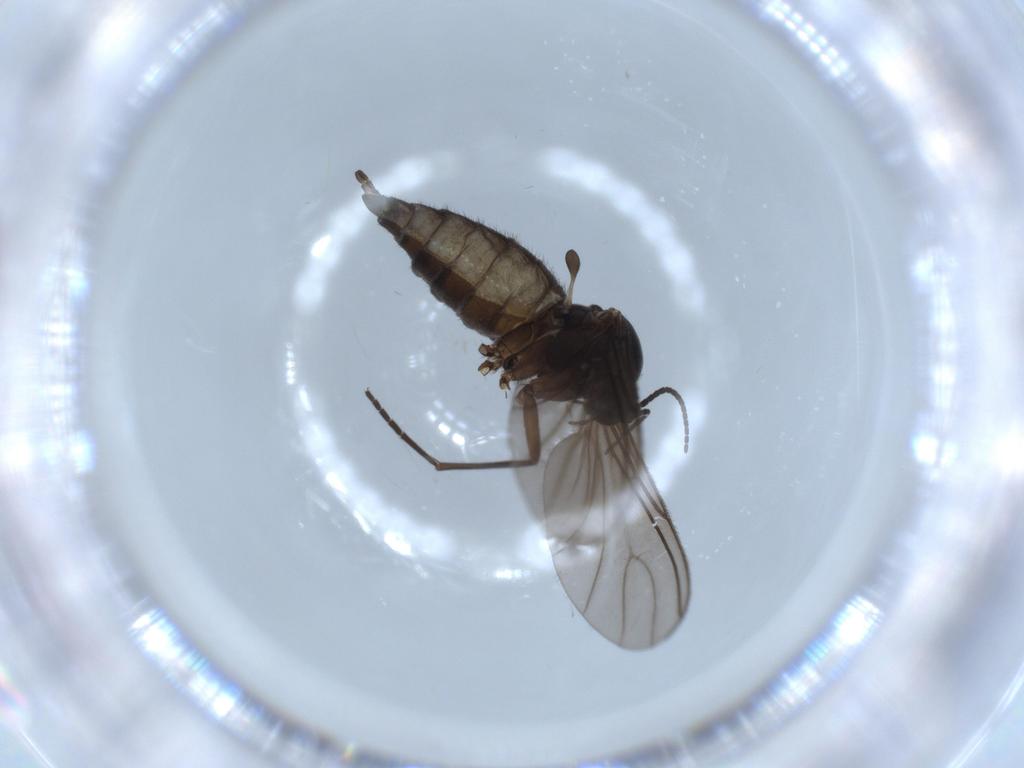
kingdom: Animalia
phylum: Arthropoda
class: Insecta
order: Diptera
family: Sciaridae
